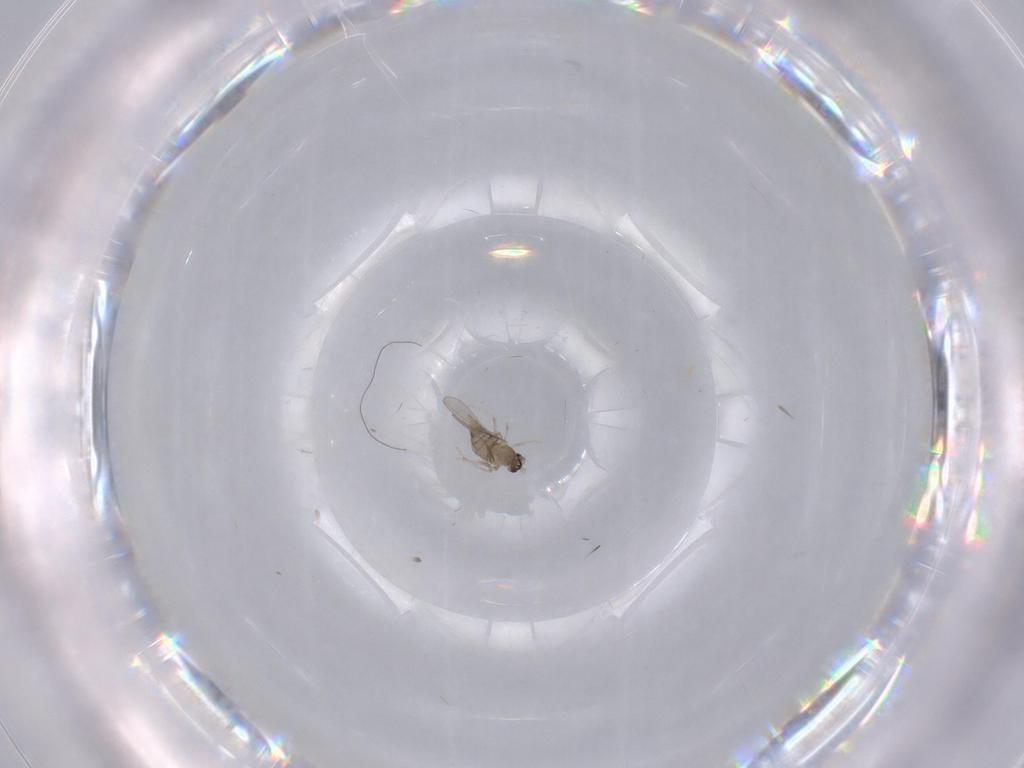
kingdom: Animalia
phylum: Arthropoda
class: Insecta
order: Diptera
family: Cecidomyiidae
